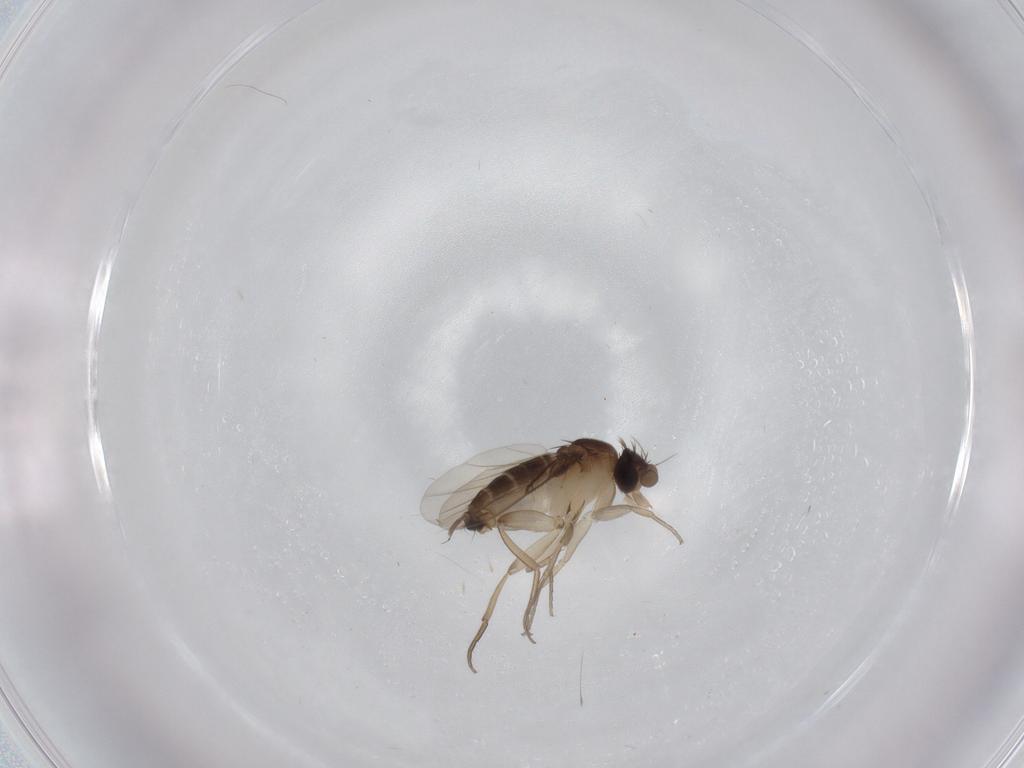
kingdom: Animalia
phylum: Arthropoda
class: Insecta
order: Diptera
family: Phoridae
